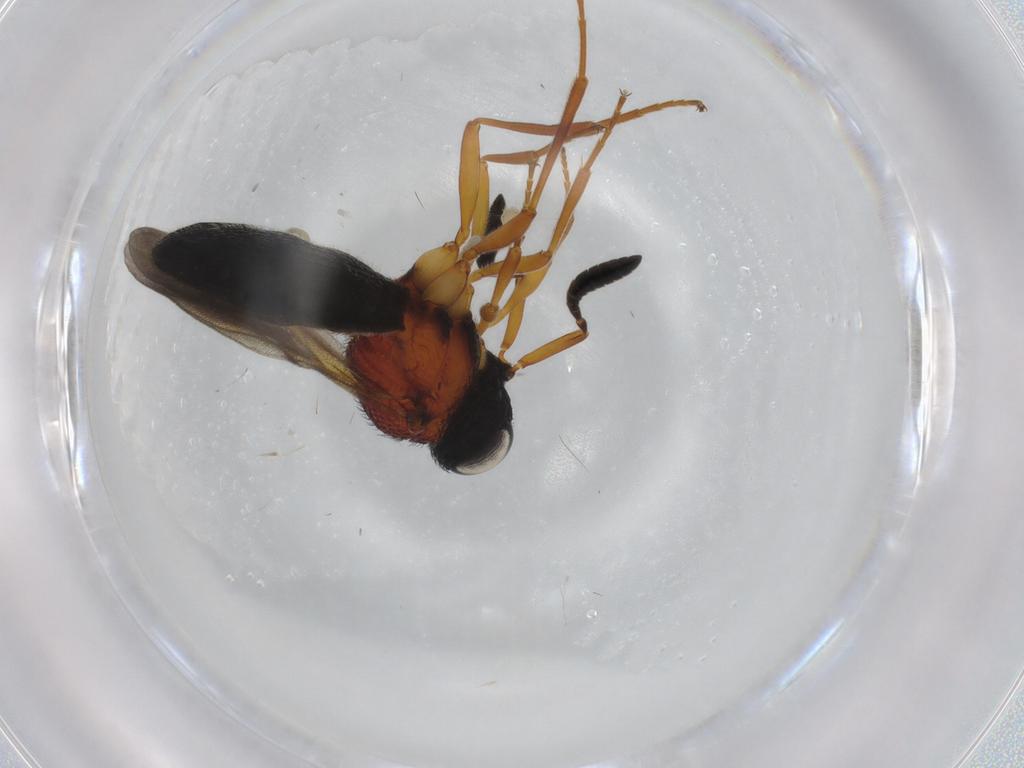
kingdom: Animalia
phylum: Arthropoda
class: Insecta
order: Hymenoptera
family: Scelionidae
